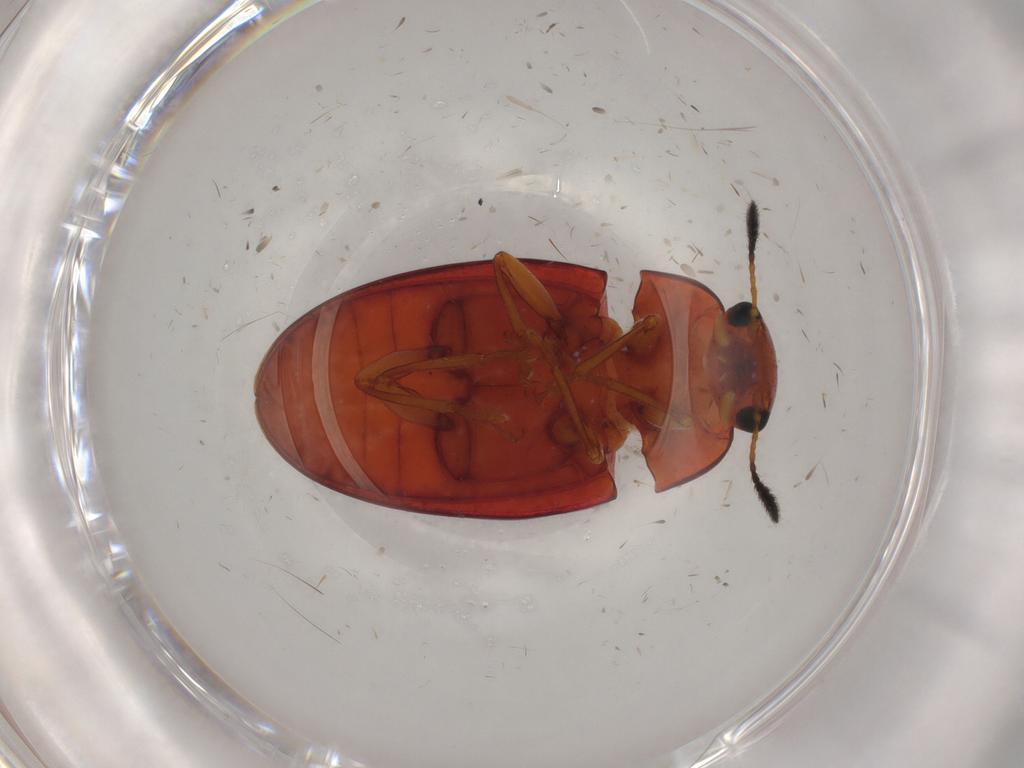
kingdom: Animalia
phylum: Arthropoda
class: Insecta
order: Coleoptera
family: Erotylidae
